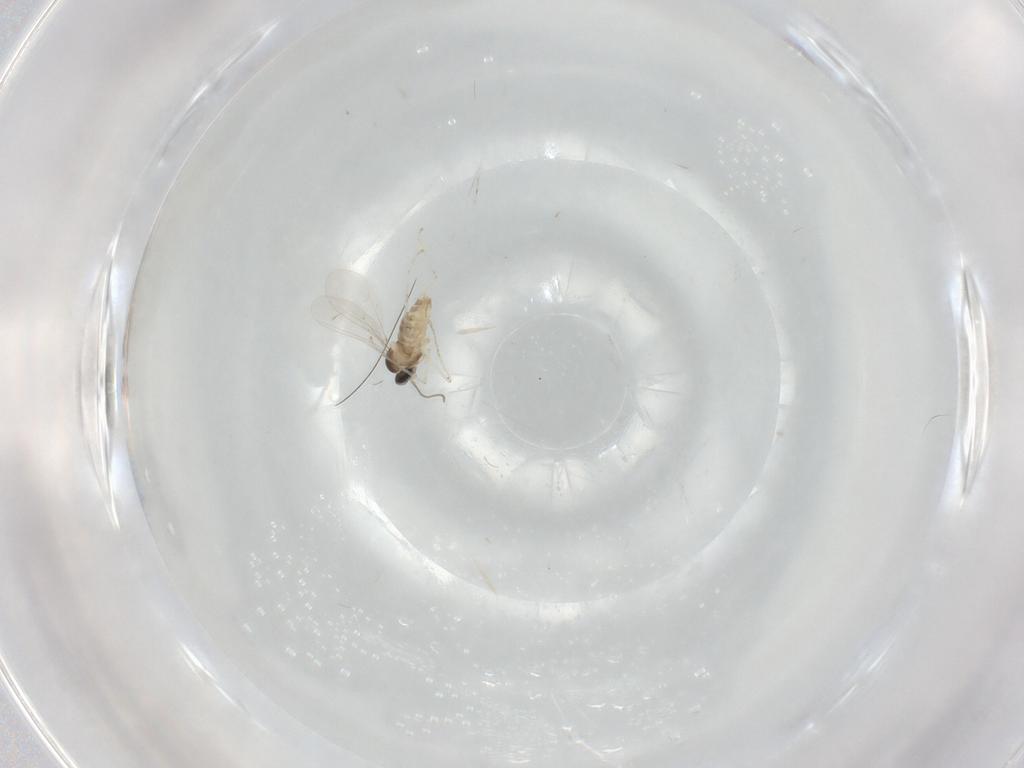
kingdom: Animalia
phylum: Arthropoda
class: Insecta
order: Diptera
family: Cecidomyiidae
